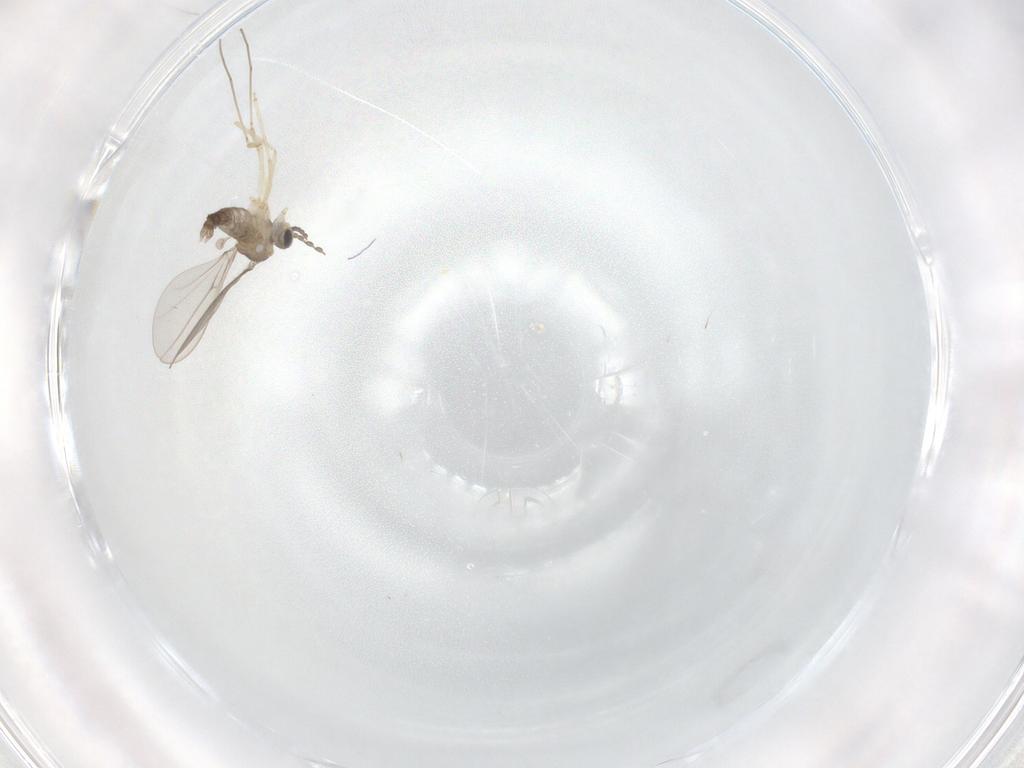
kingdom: Animalia
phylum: Arthropoda
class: Insecta
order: Diptera
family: Cecidomyiidae
